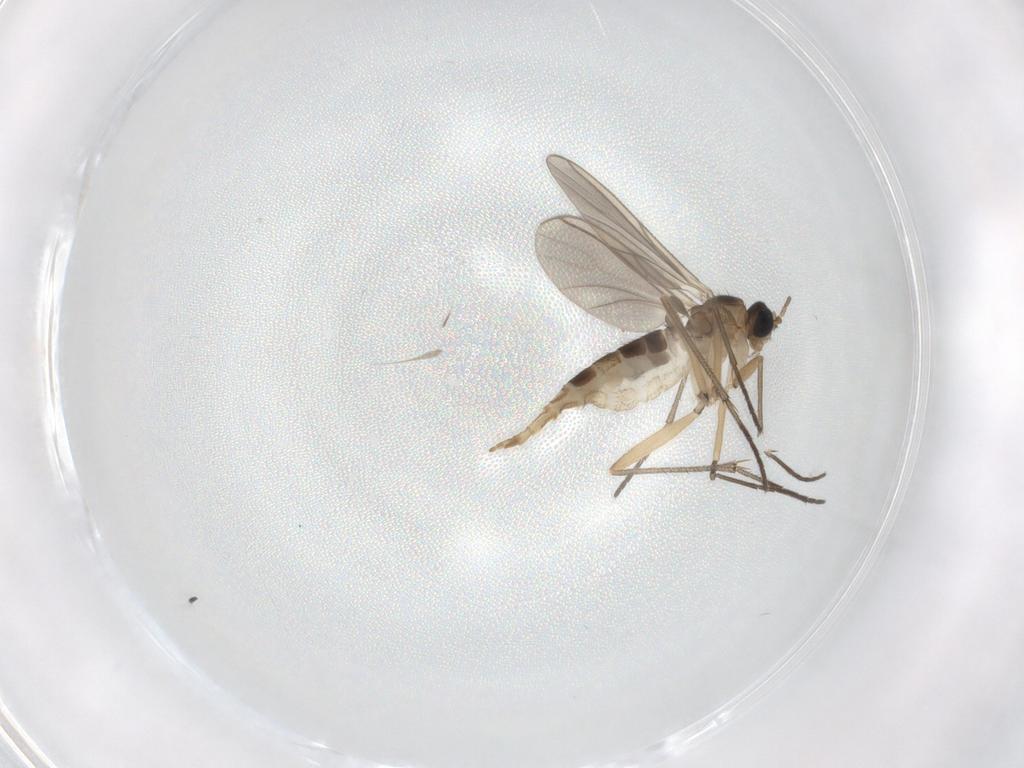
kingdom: Animalia
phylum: Arthropoda
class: Insecta
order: Diptera
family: Sciaridae
